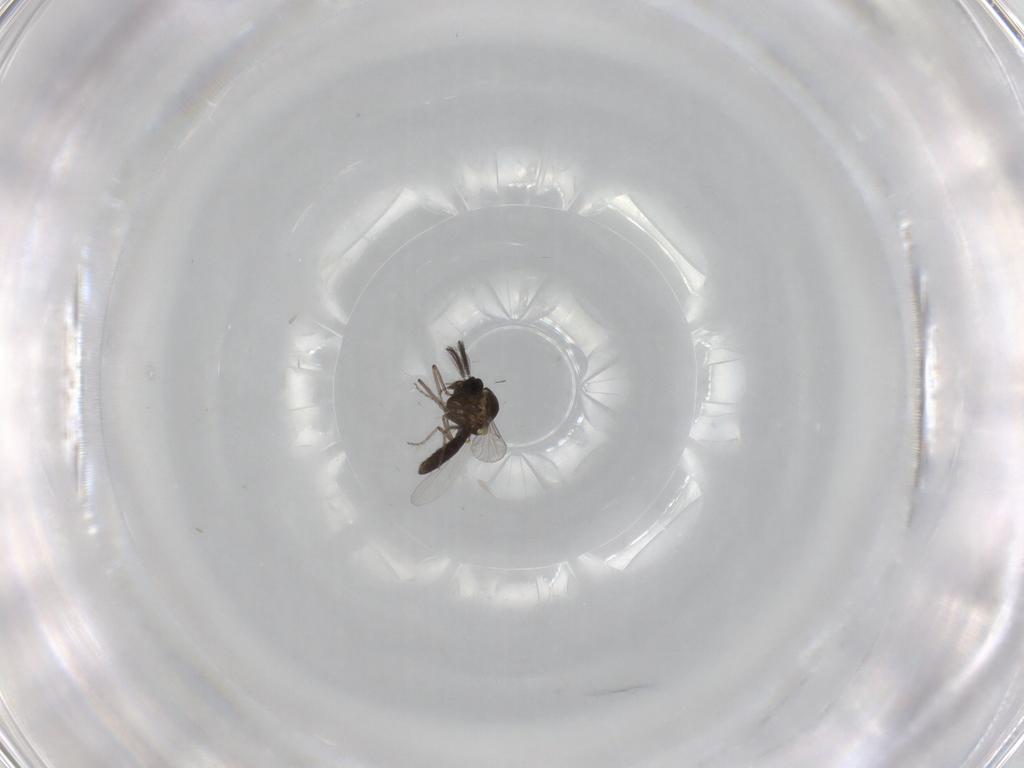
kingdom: Animalia
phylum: Arthropoda
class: Insecta
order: Diptera
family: Ceratopogonidae
